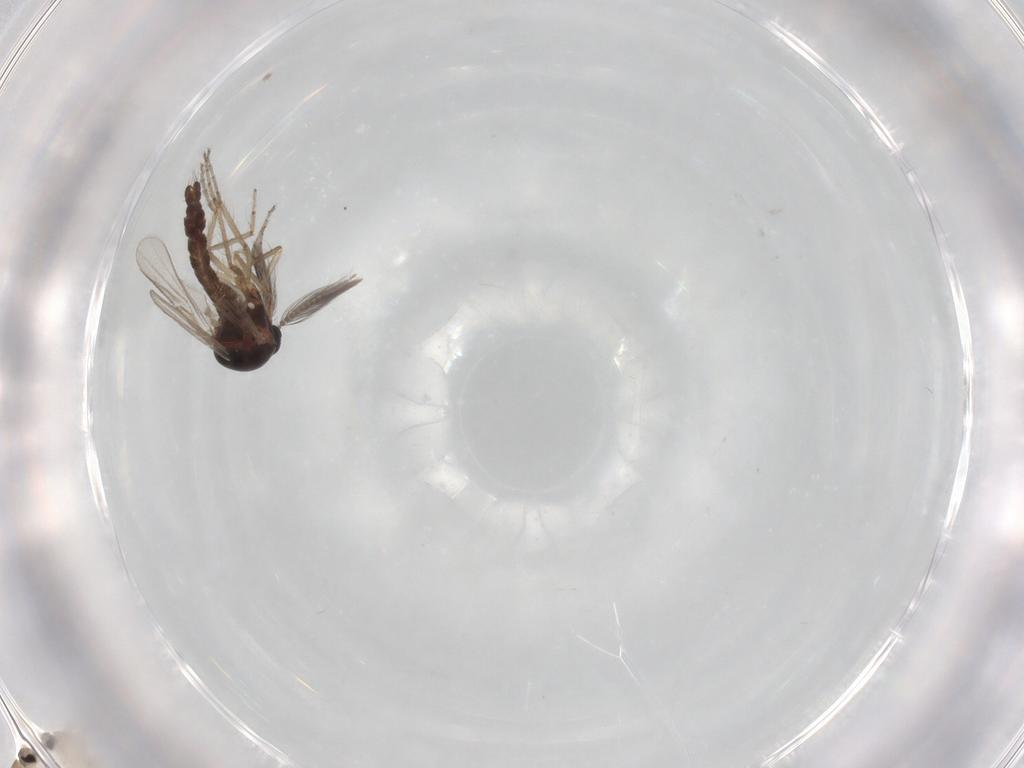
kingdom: Animalia
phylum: Arthropoda
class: Insecta
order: Diptera
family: Ceratopogonidae
